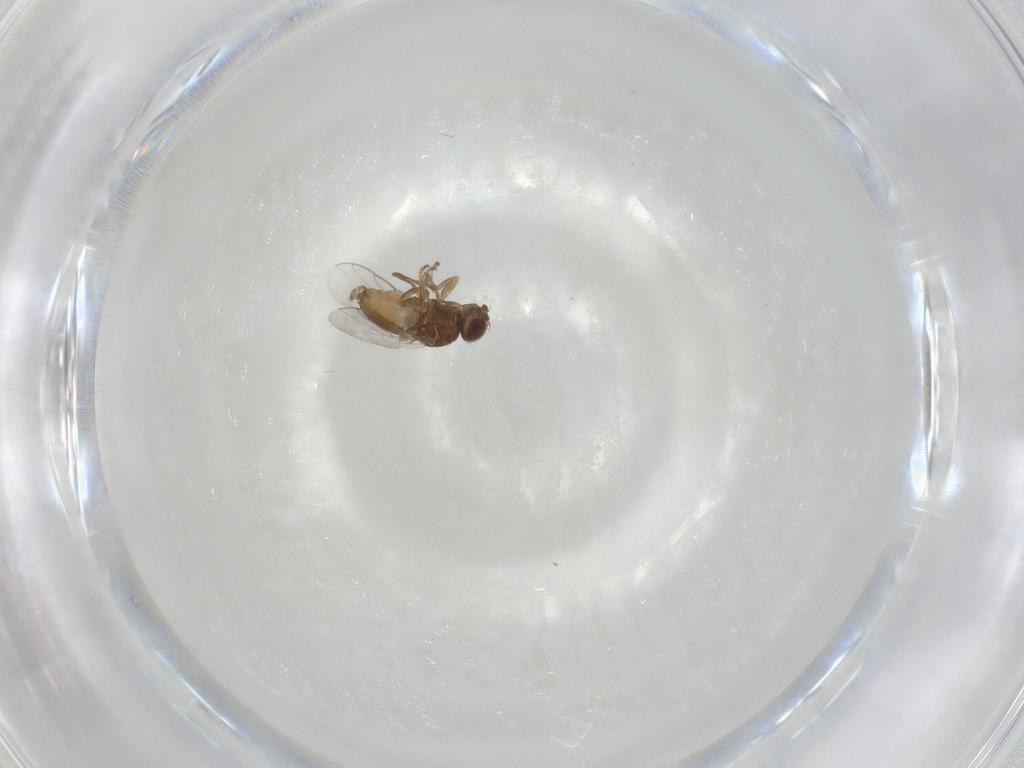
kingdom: Animalia
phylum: Arthropoda
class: Insecta
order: Diptera
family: Chloropidae
